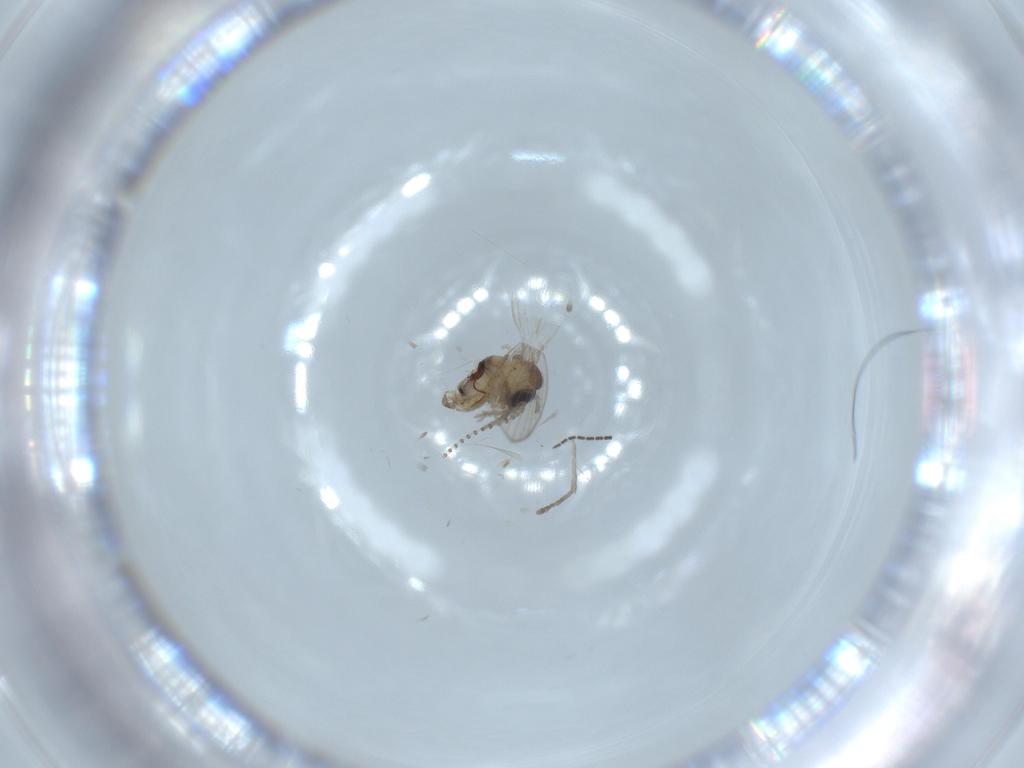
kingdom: Animalia
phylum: Arthropoda
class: Insecta
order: Diptera
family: Psychodidae
